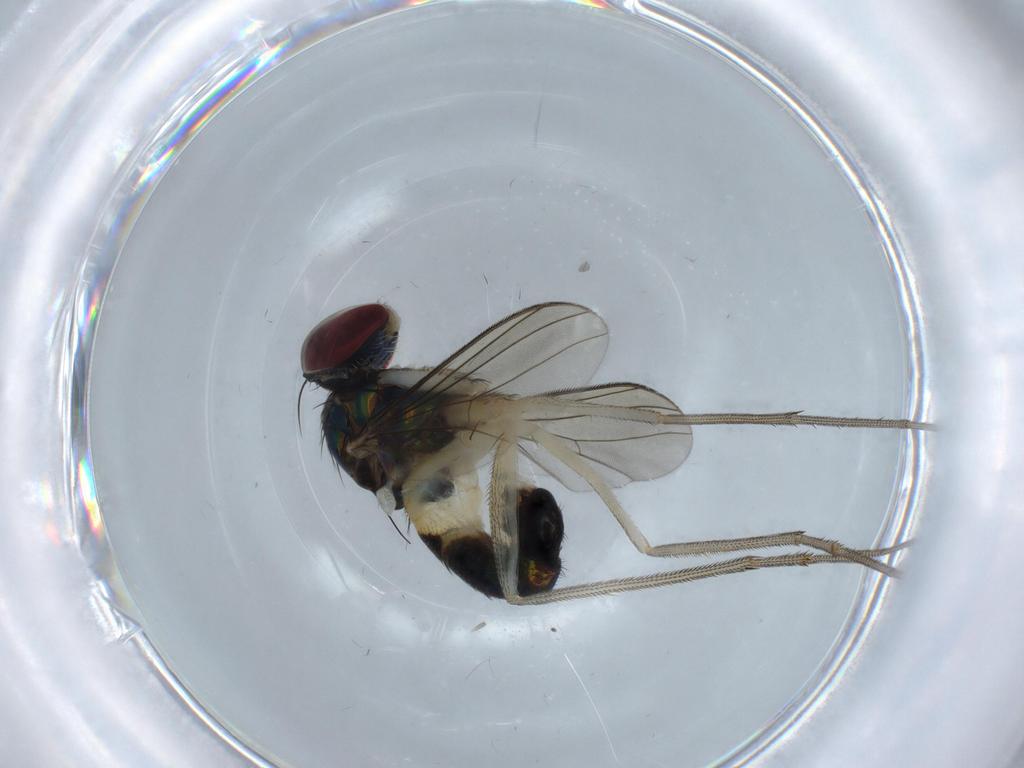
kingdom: Animalia
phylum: Arthropoda
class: Insecta
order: Diptera
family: Dolichopodidae
